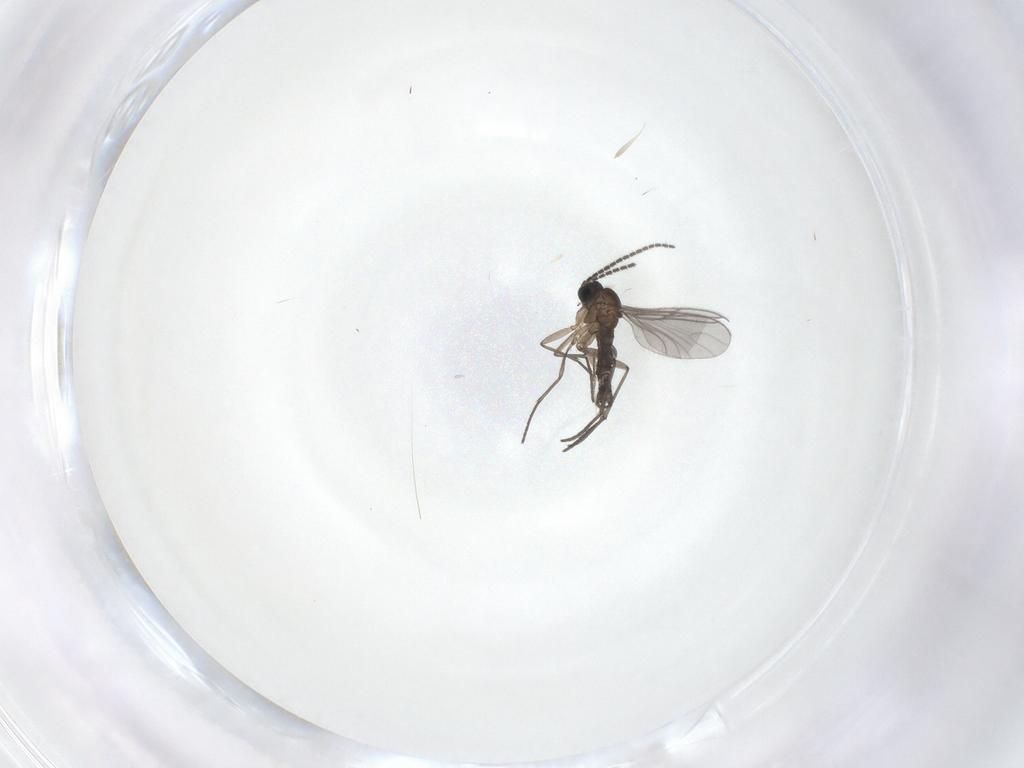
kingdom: Animalia
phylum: Arthropoda
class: Insecta
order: Diptera
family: Sciaridae
